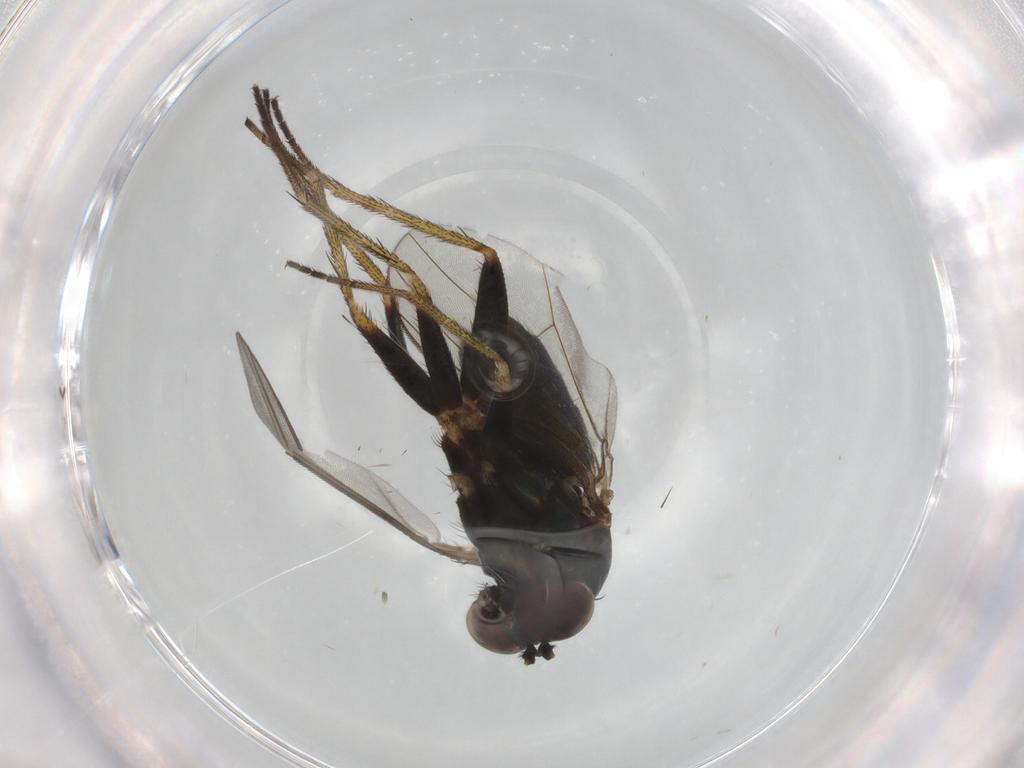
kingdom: Animalia
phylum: Arthropoda
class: Insecta
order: Diptera
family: Dolichopodidae
